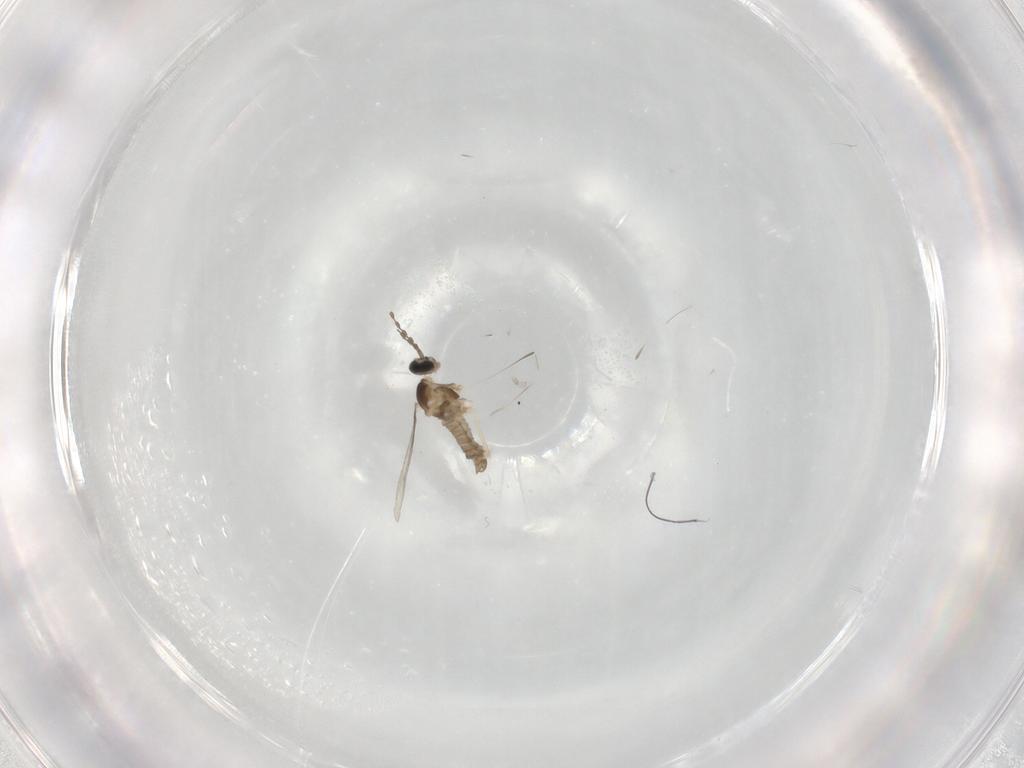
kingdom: Animalia
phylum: Arthropoda
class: Insecta
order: Diptera
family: Cecidomyiidae
